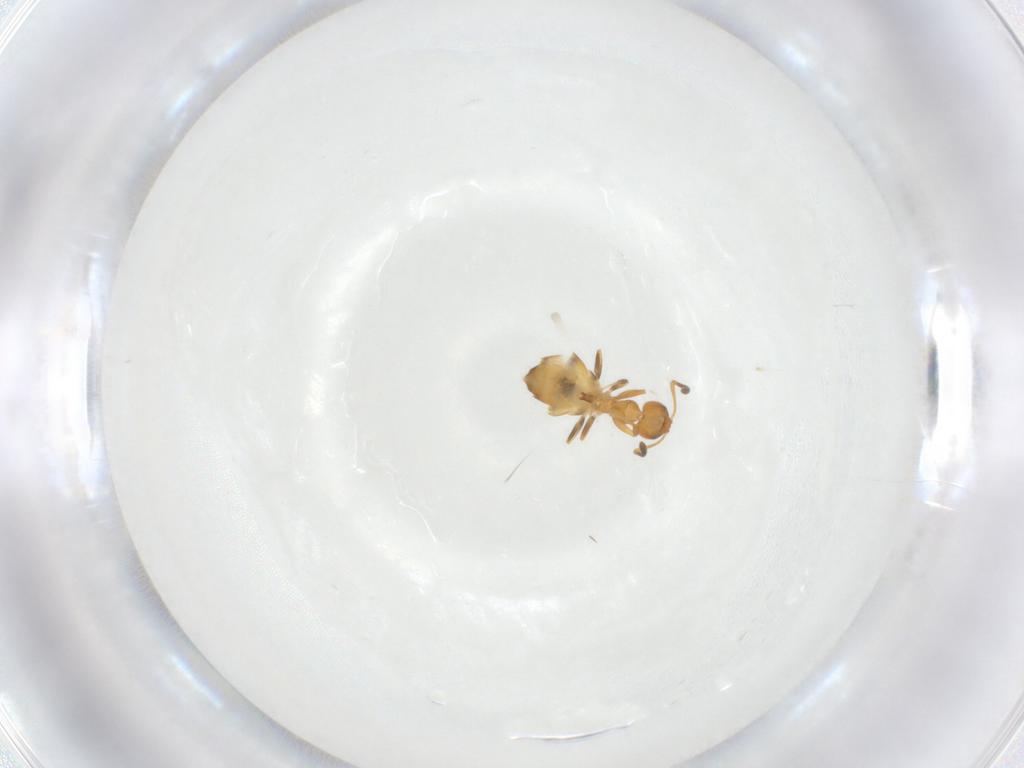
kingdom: Animalia
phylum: Arthropoda
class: Insecta
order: Hymenoptera
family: Formicidae
